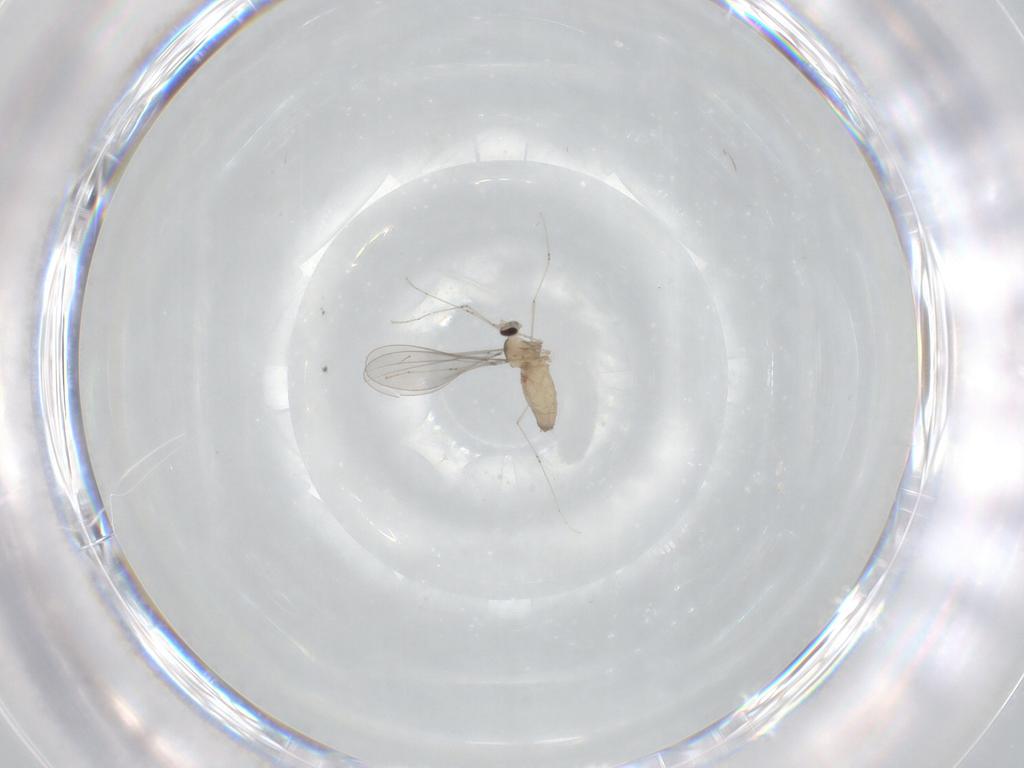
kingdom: Animalia
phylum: Arthropoda
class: Insecta
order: Diptera
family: Cecidomyiidae
